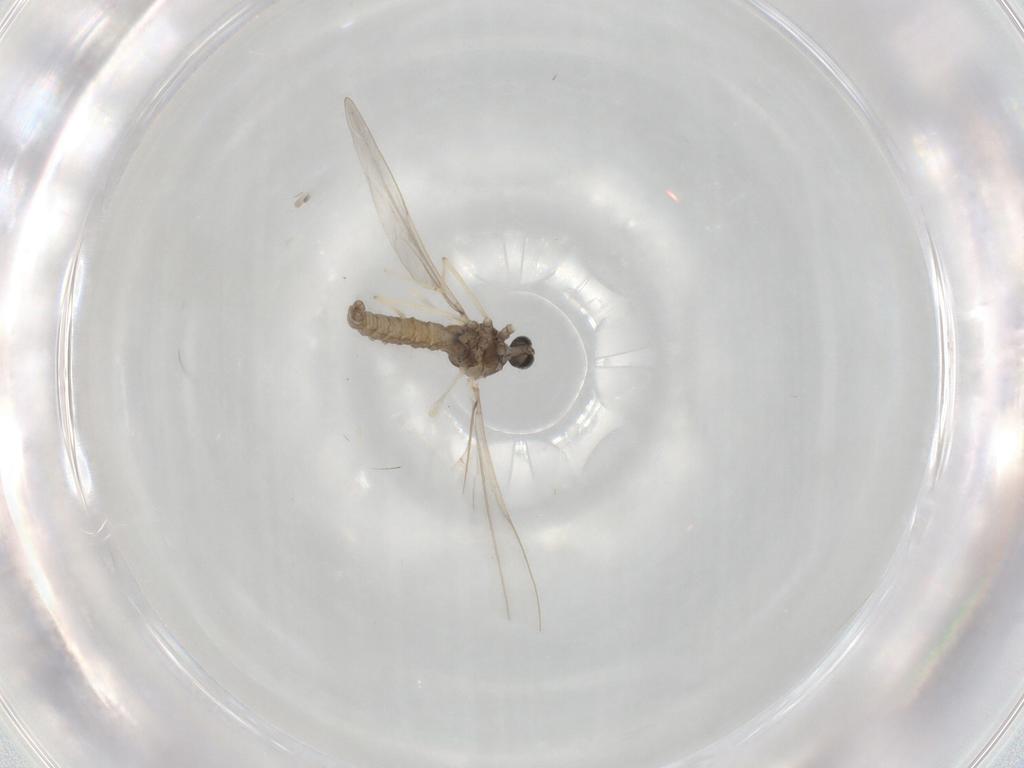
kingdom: Animalia
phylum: Arthropoda
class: Insecta
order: Diptera
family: Cecidomyiidae
